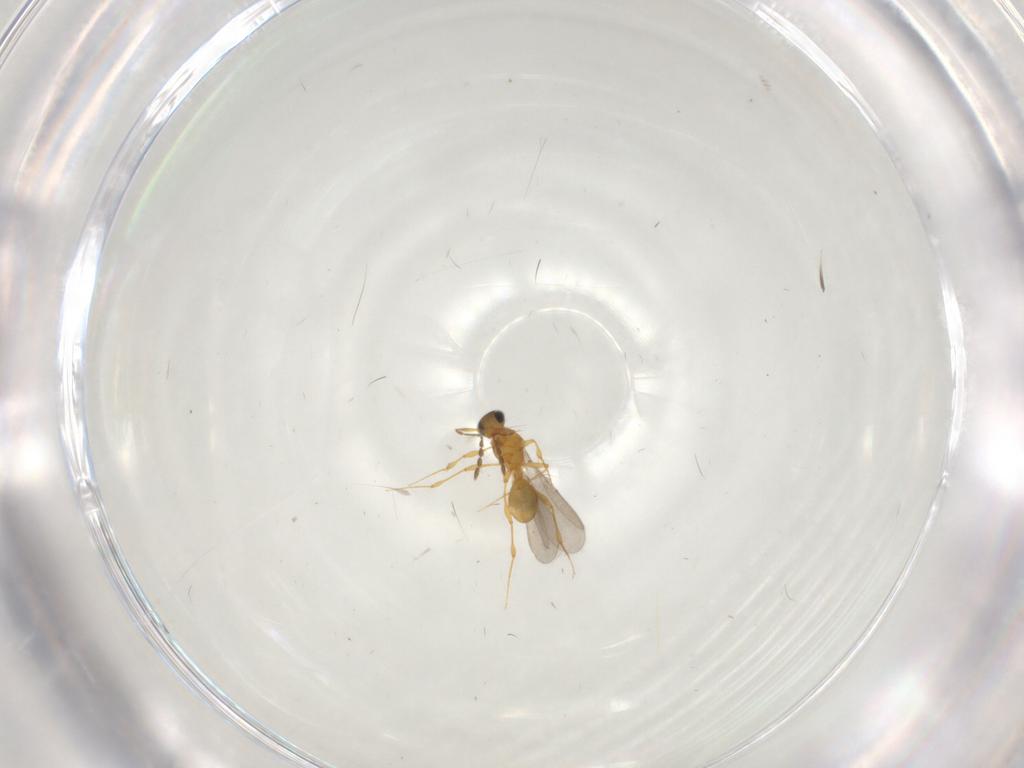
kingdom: Animalia
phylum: Arthropoda
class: Insecta
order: Hymenoptera
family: Platygastridae
